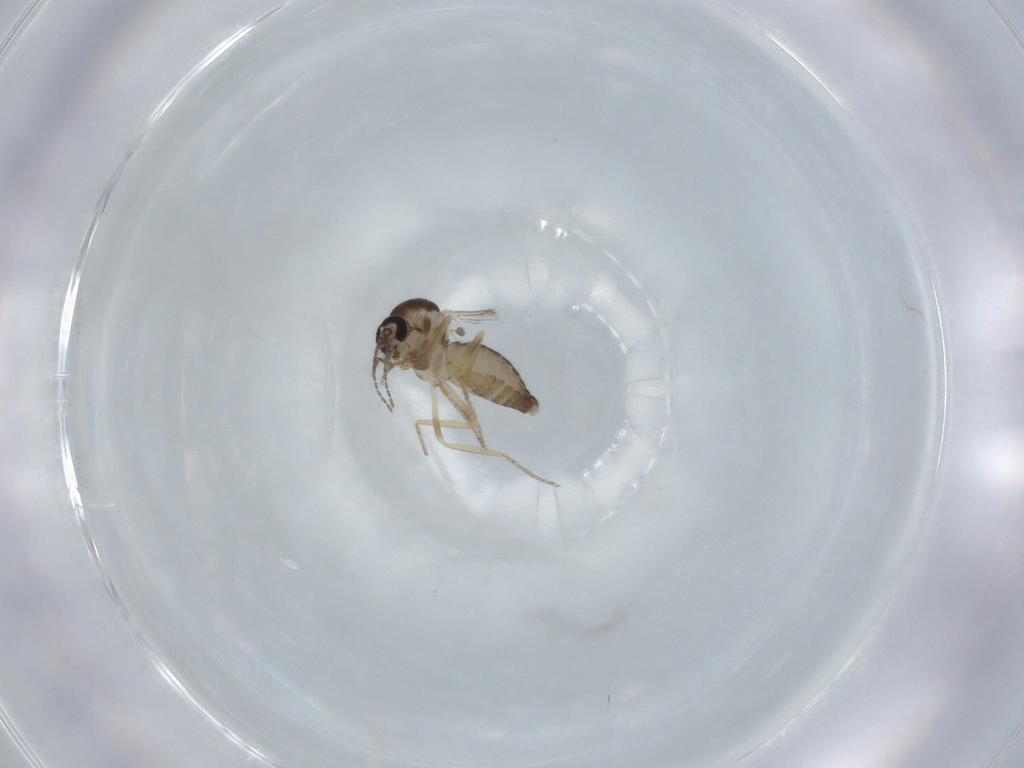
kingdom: Animalia
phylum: Arthropoda
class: Insecta
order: Diptera
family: Ceratopogonidae
